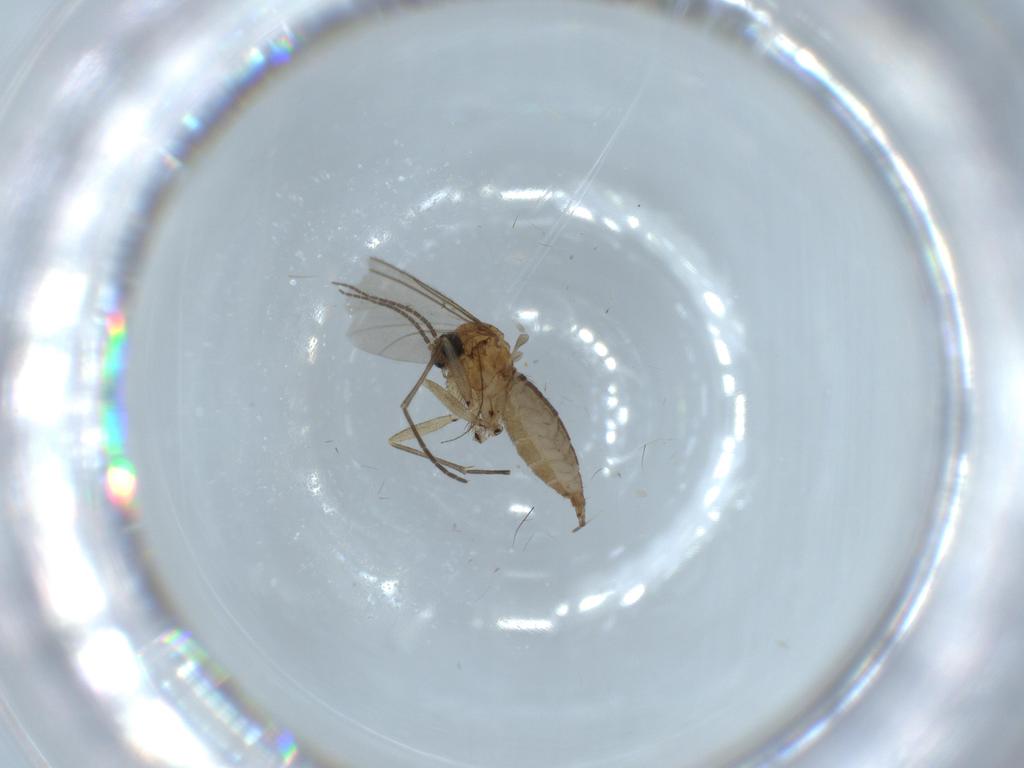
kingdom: Animalia
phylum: Arthropoda
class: Insecta
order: Diptera
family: Sciaridae
